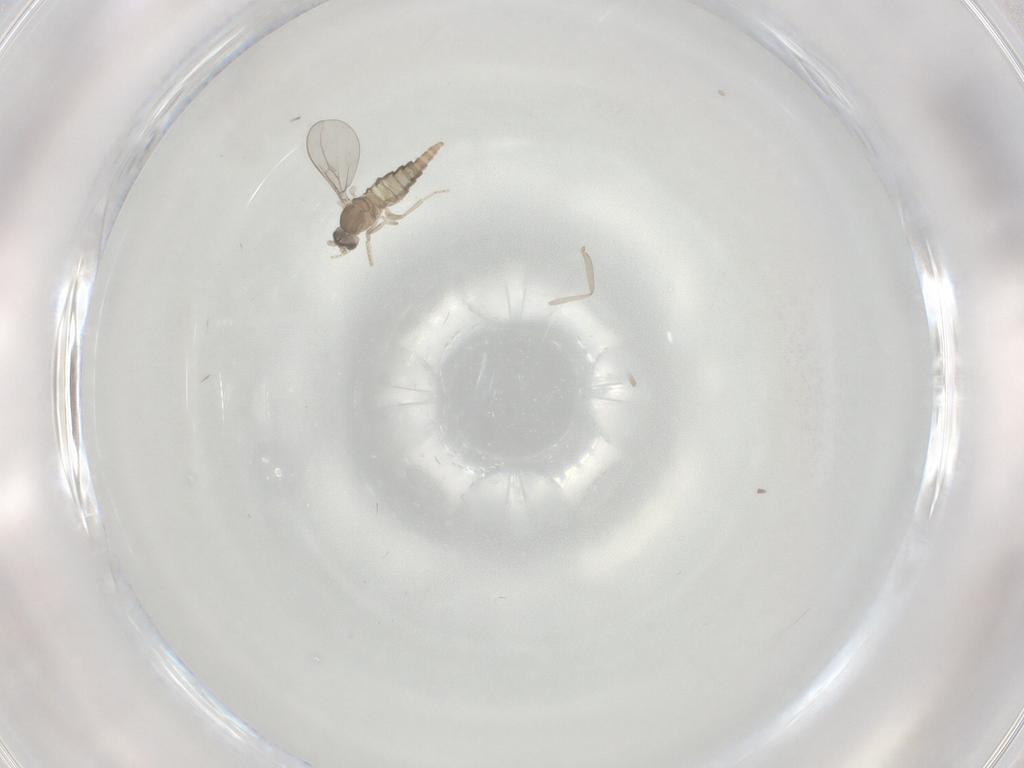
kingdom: Animalia
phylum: Arthropoda
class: Insecta
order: Diptera
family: Cecidomyiidae
